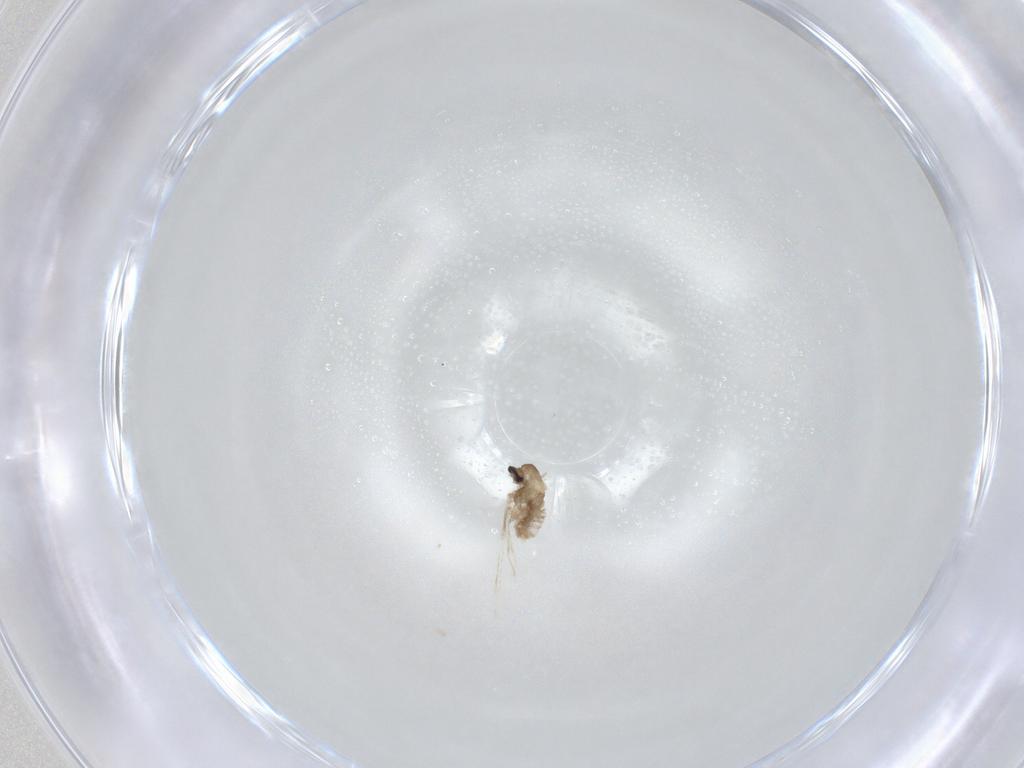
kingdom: Animalia
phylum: Arthropoda
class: Insecta
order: Diptera
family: Cecidomyiidae
